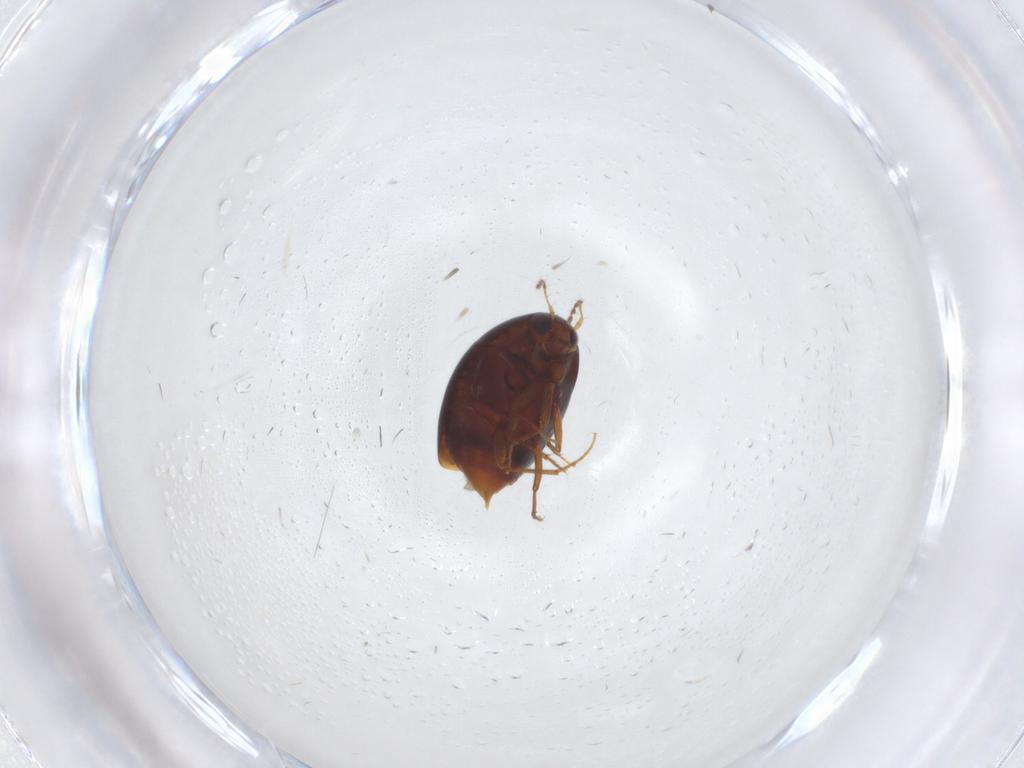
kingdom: Animalia
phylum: Arthropoda
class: Insecta
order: Coleoptera
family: Staphylinidae
